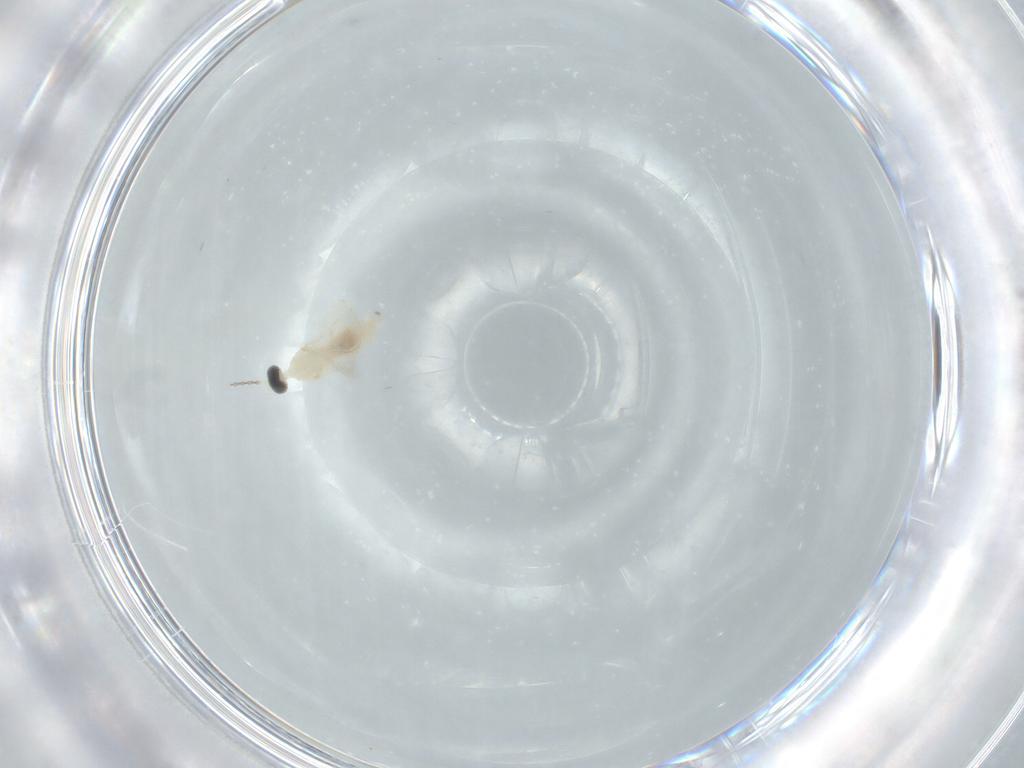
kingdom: Animalia
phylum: Arthropoda
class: Insecta
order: Diptera
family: Cecidomyiidae
